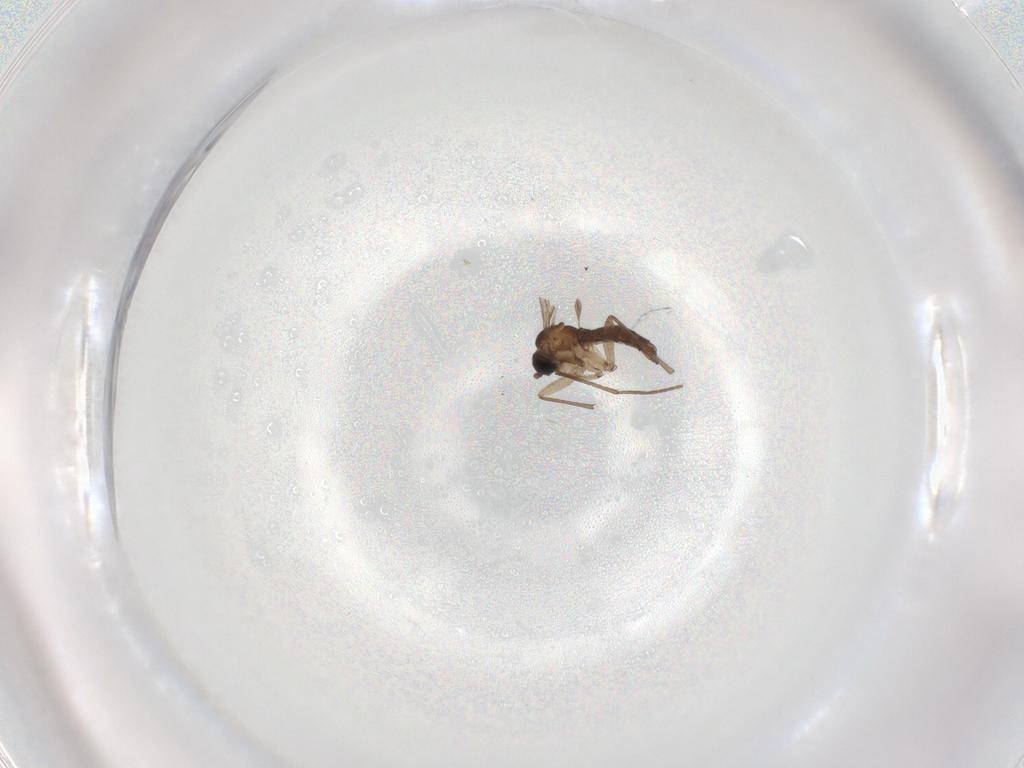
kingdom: Animalia
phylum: Arthropoda
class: Insecta
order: Diptera
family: Sciaridae
